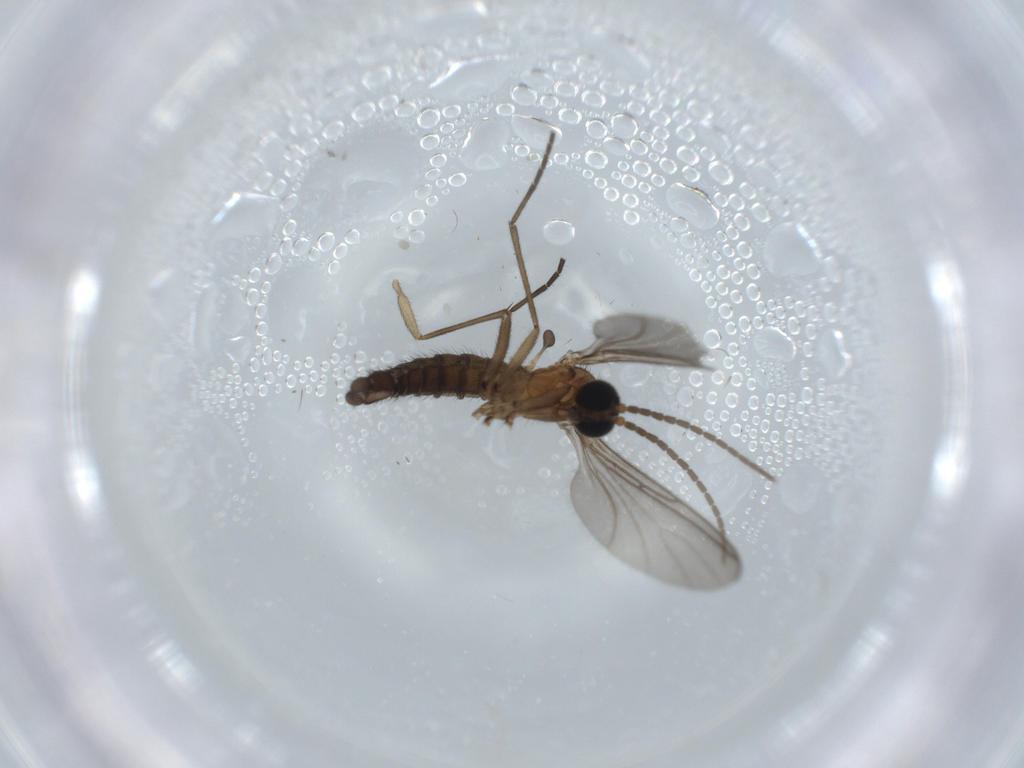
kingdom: Animalia
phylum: Arthropoda
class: Insecta
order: Diptera
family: Sciaridae
